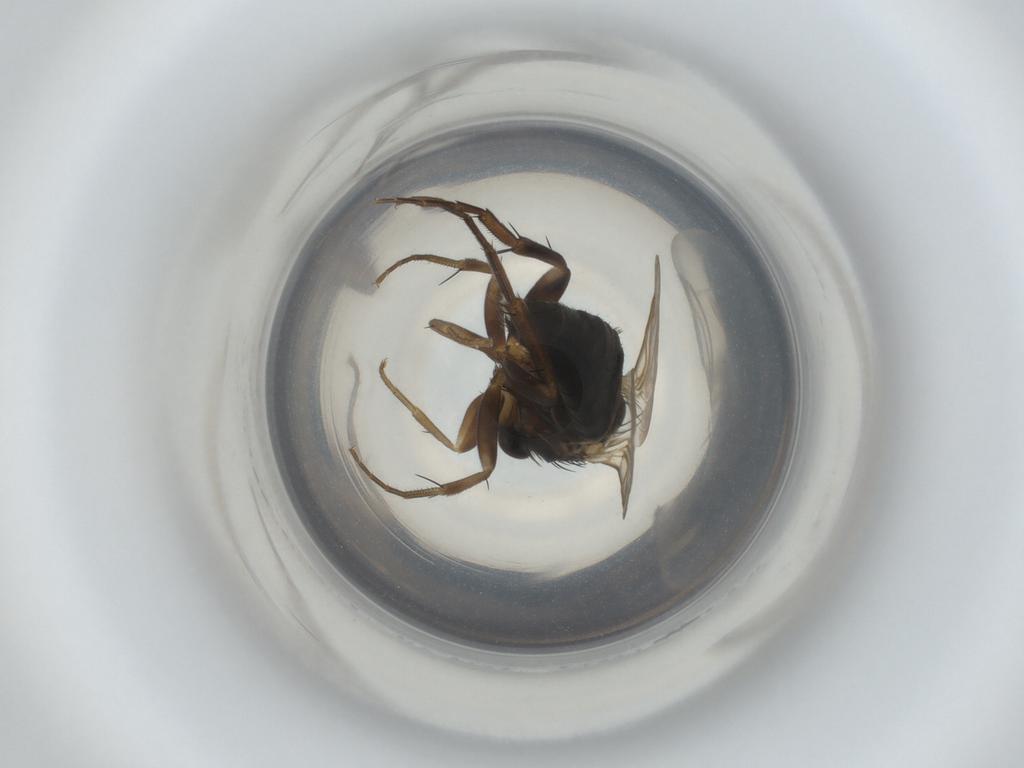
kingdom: Animalia
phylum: Arthropoda
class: Insecta
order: Diptera
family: Phoridae
